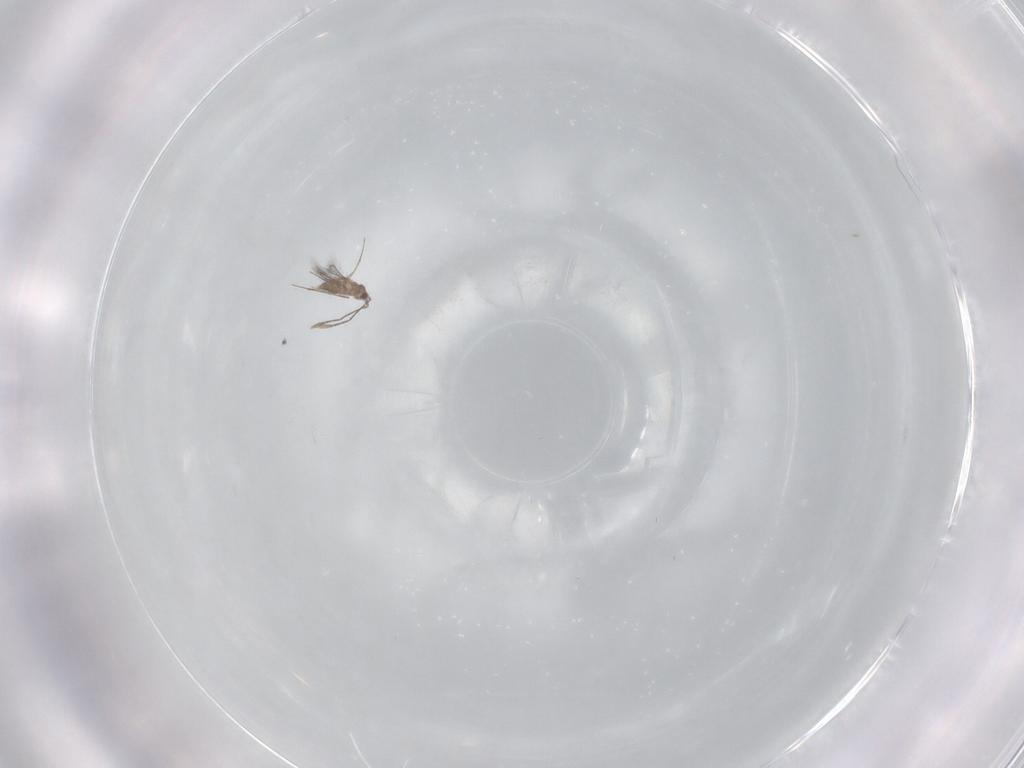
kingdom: Animalia
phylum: Arthropoda
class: Insecta
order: Hymenoptera
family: Mymaridae
